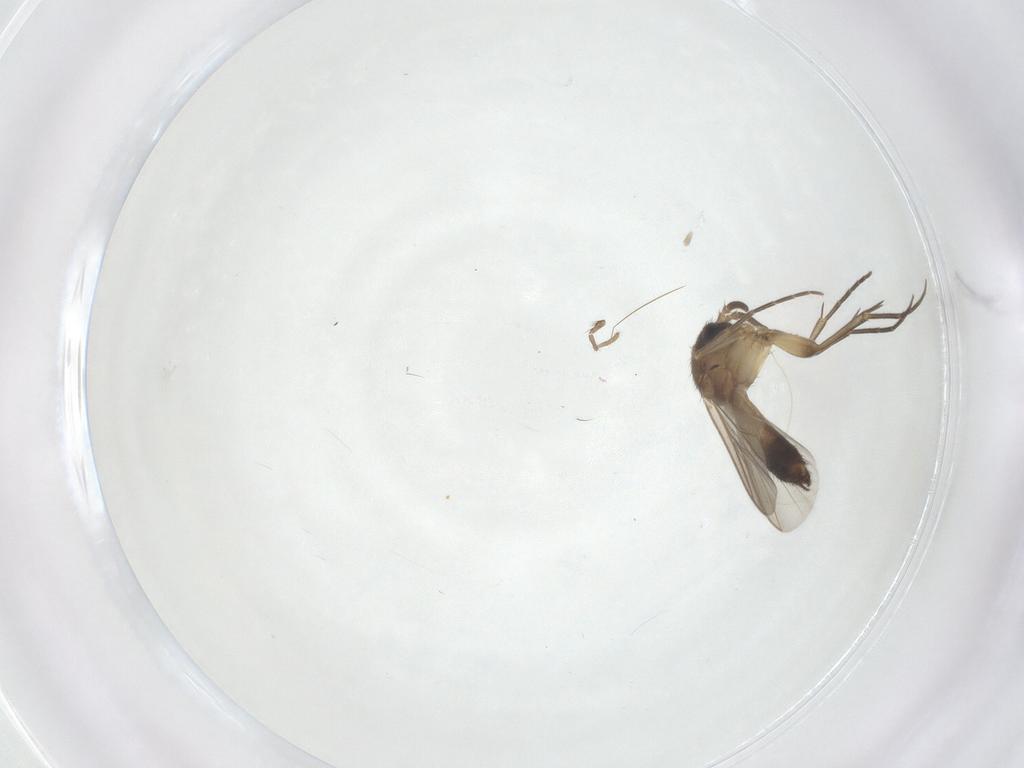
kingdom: Animalia
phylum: Arthropoda
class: Insecta
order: Diptera
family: Mycetophilidae
